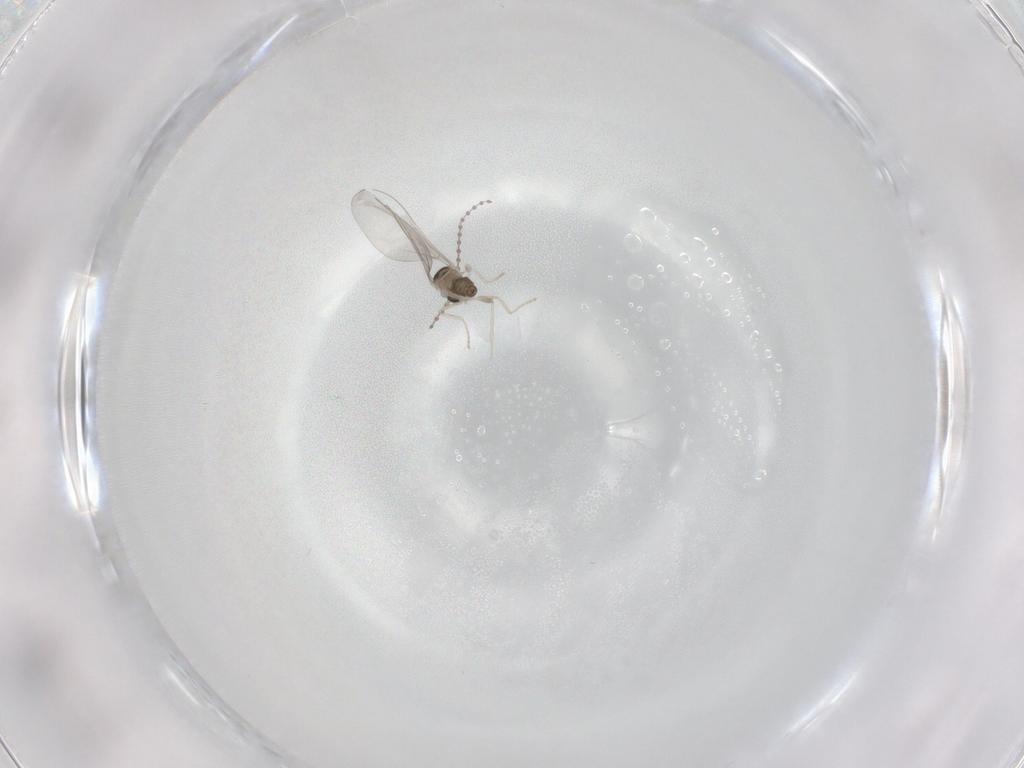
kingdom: Animalia
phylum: Arthropoda
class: Insecta
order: Diptera
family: Cecidomyiidae
